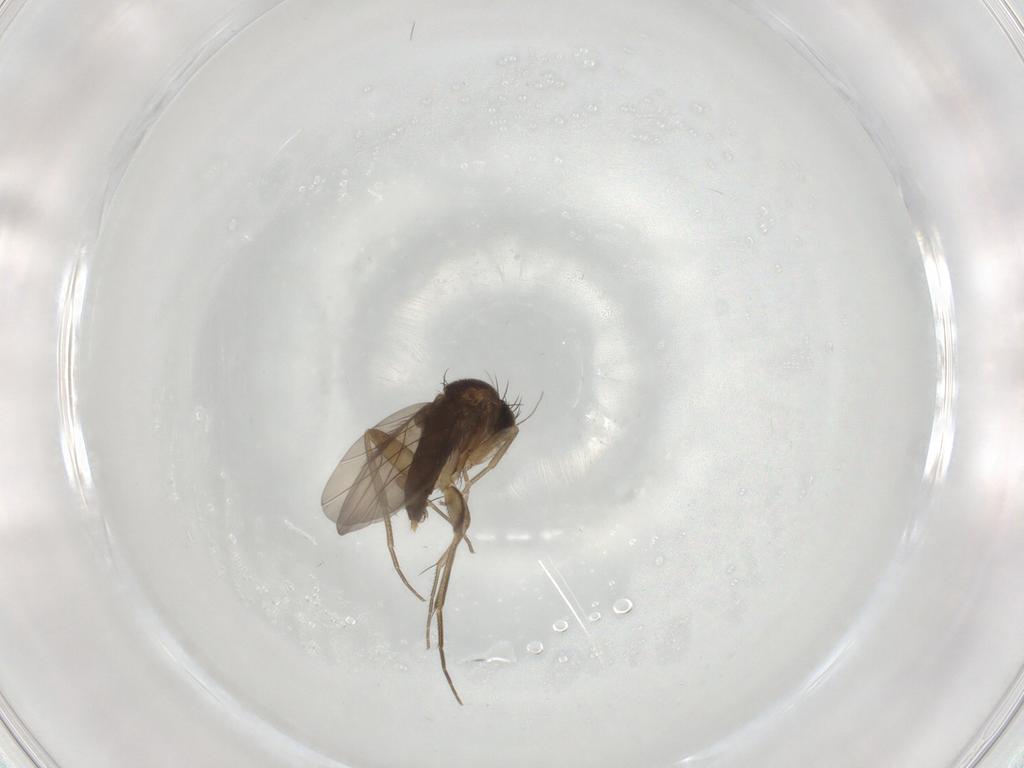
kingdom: Animalia
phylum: Arthropoda
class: Insecta
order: Diptera
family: Phoridae
